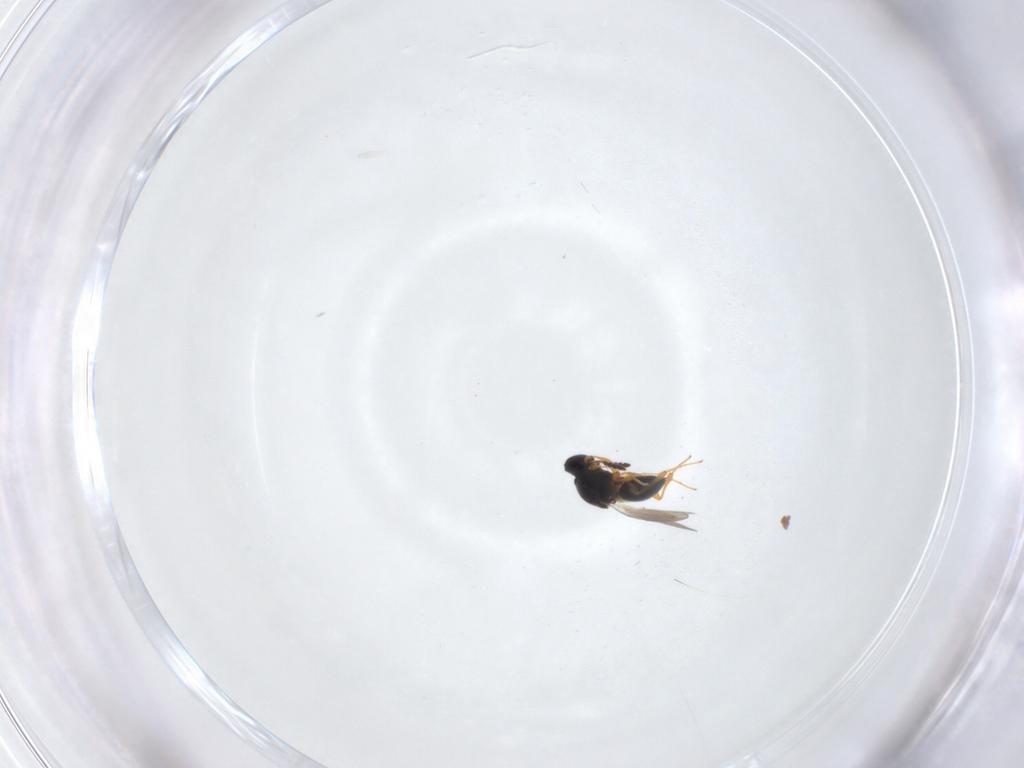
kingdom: Animalia
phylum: Arthropoda
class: Insecta
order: Hymenoptera
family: Platygastridae
